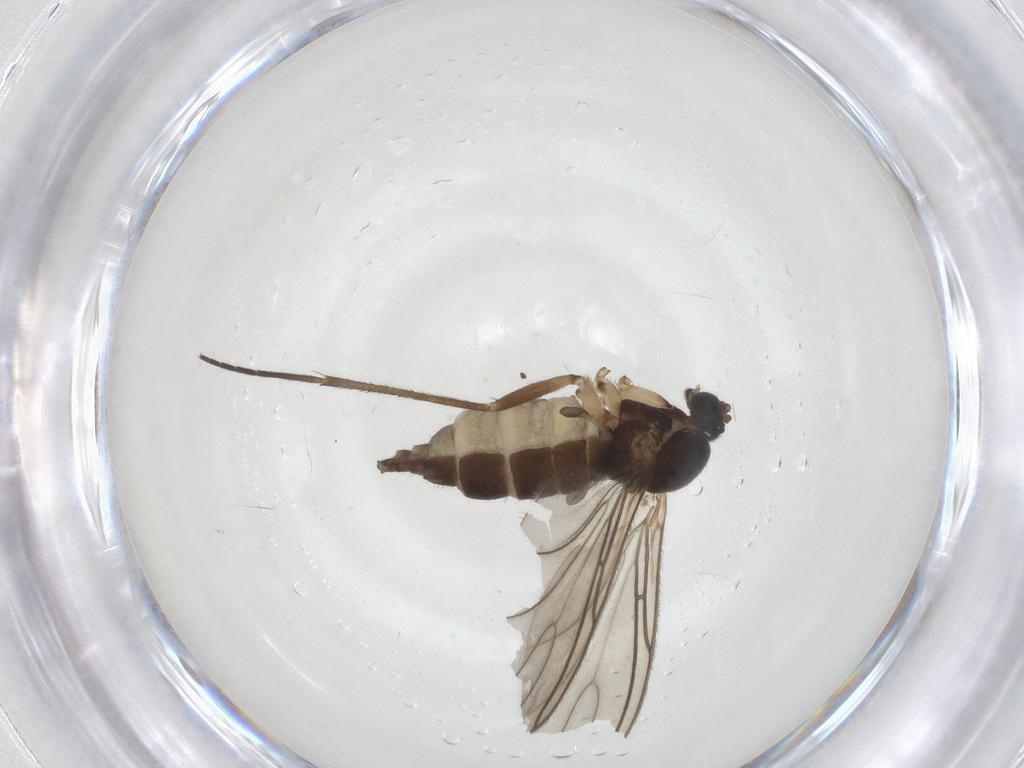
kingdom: Animalia
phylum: Arthropoda
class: Insecta
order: Diptera
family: Sciaridae
